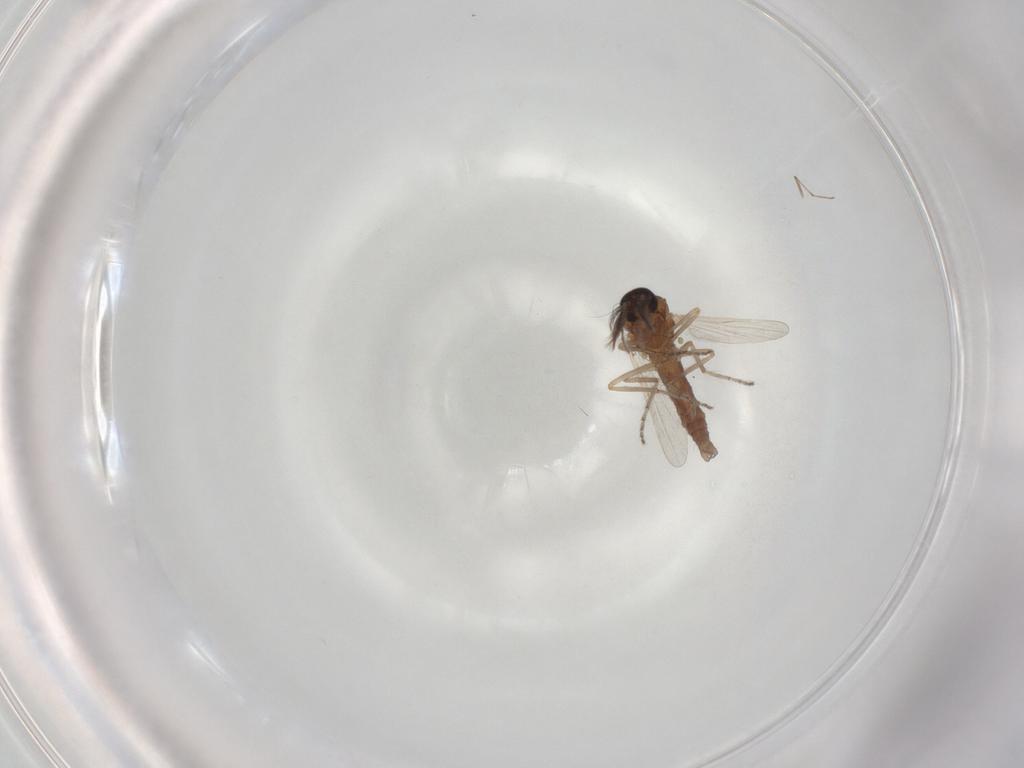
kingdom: Animalia
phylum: Arthropoda
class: Insecta
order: Diptera
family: Ceratopogonidae
